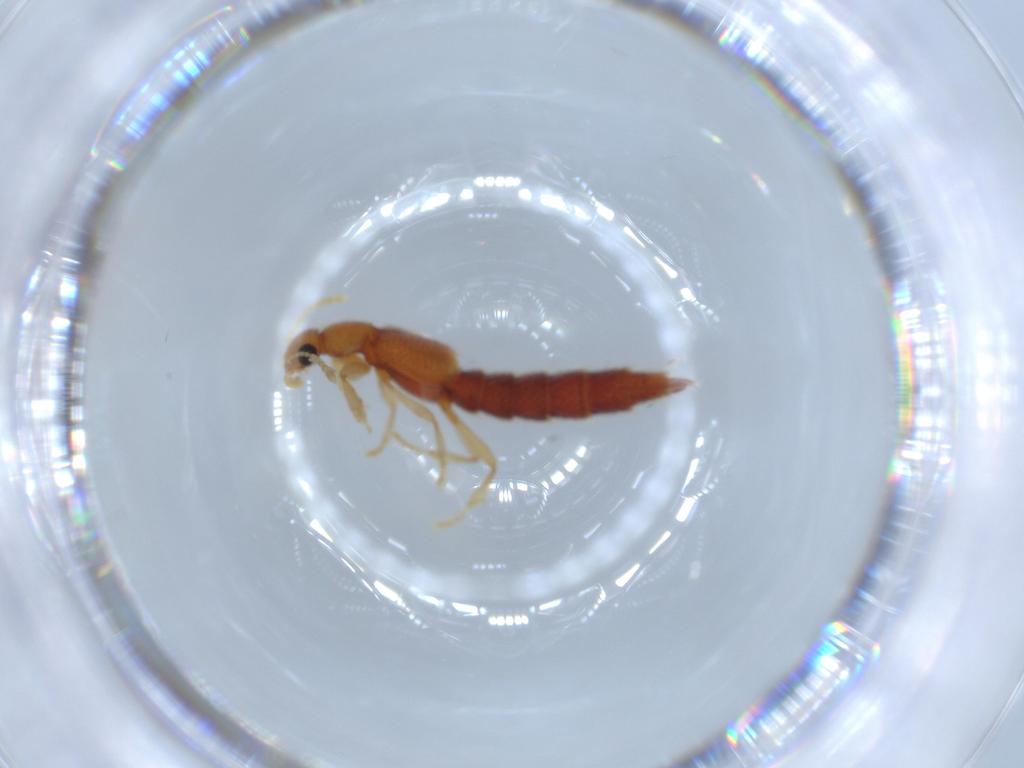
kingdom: Animalia
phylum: Arthropoda
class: Insecta
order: Coleoptera
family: Staphylinidae
